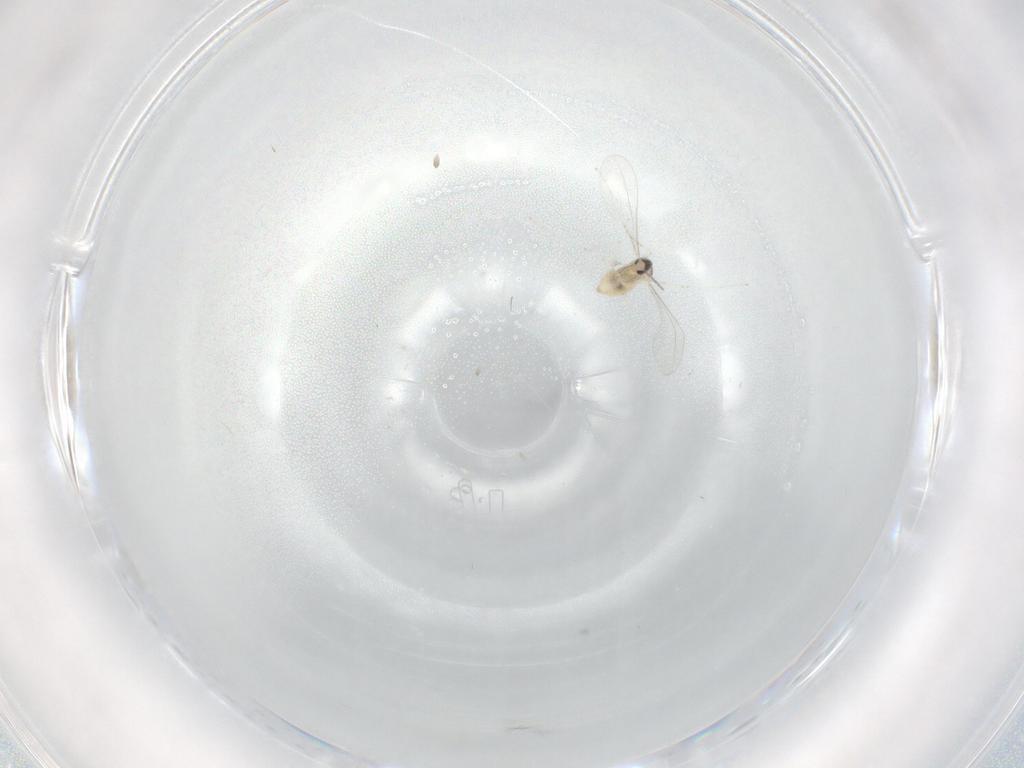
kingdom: Animalia
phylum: Arthropoda
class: Insecta
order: Diptera
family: Cecidomyiidae
